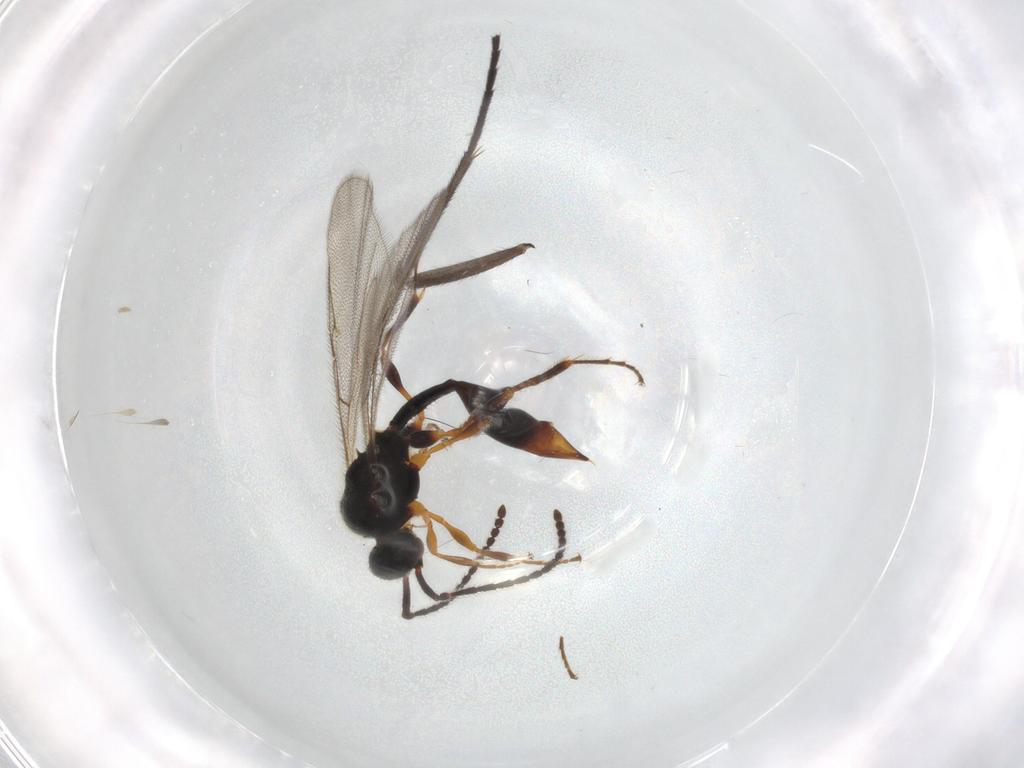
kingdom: Animalia
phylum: Arthropoda
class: Insecta
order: Hymenoptera
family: Diapriidae
